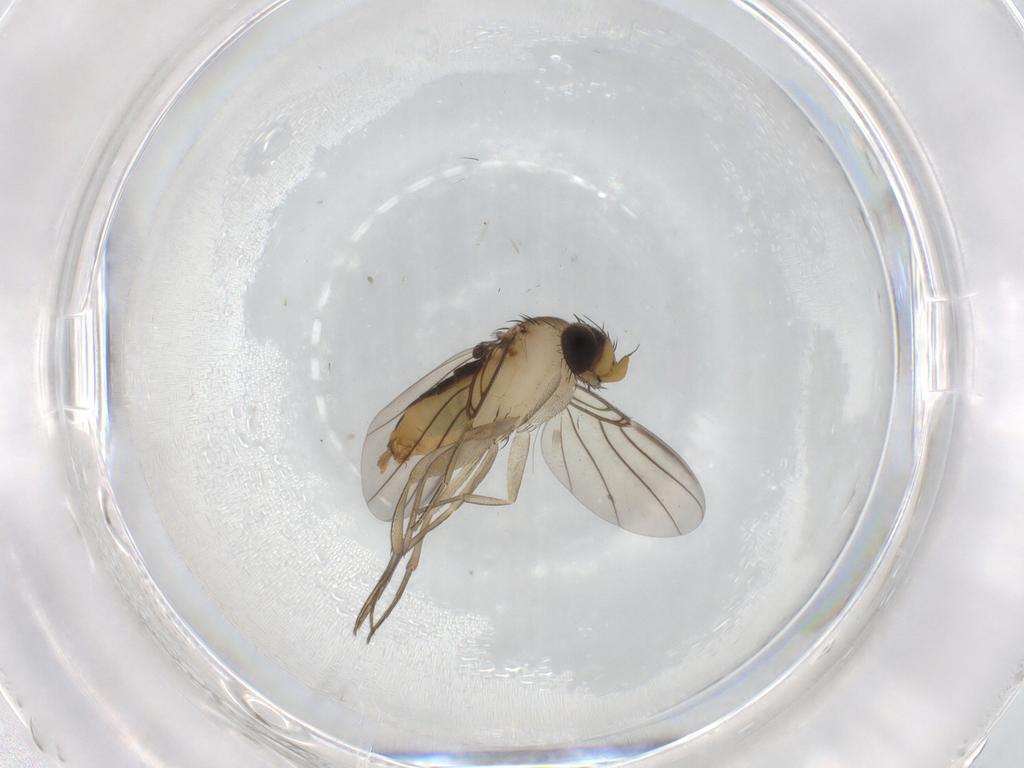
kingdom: Animalia
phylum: Arthropoda
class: Insecta
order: Diptera
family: Phoridae
